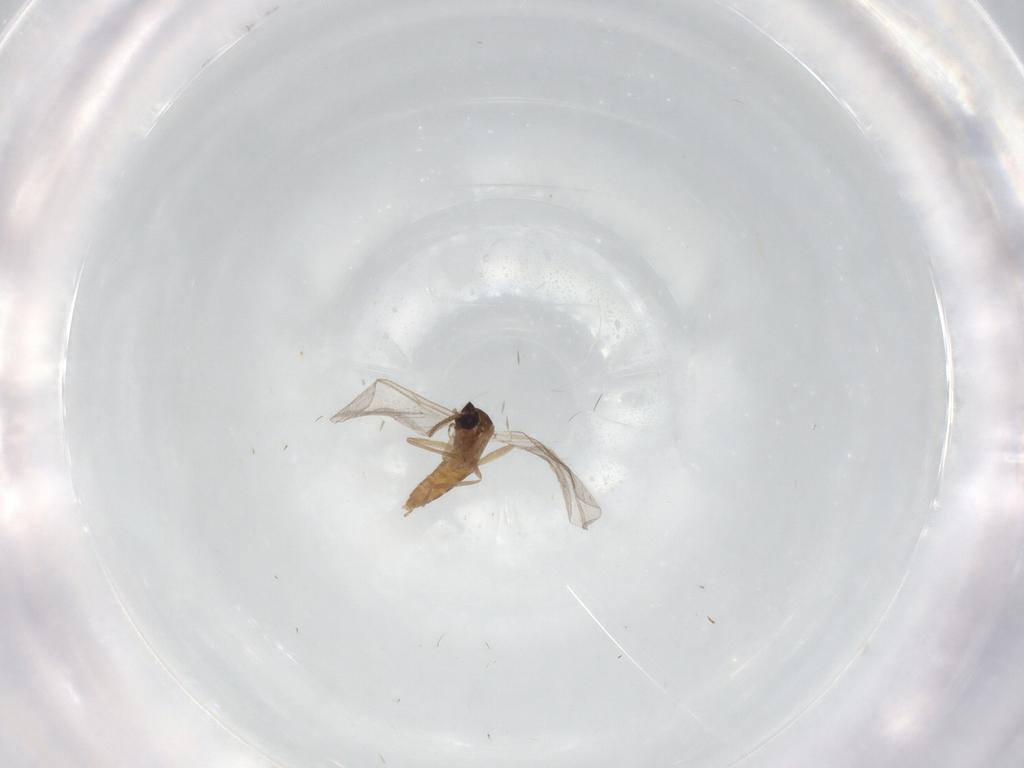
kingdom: Animalia
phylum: Arthropoda
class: Insecta
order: Diptera
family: Cecidomyiidae
